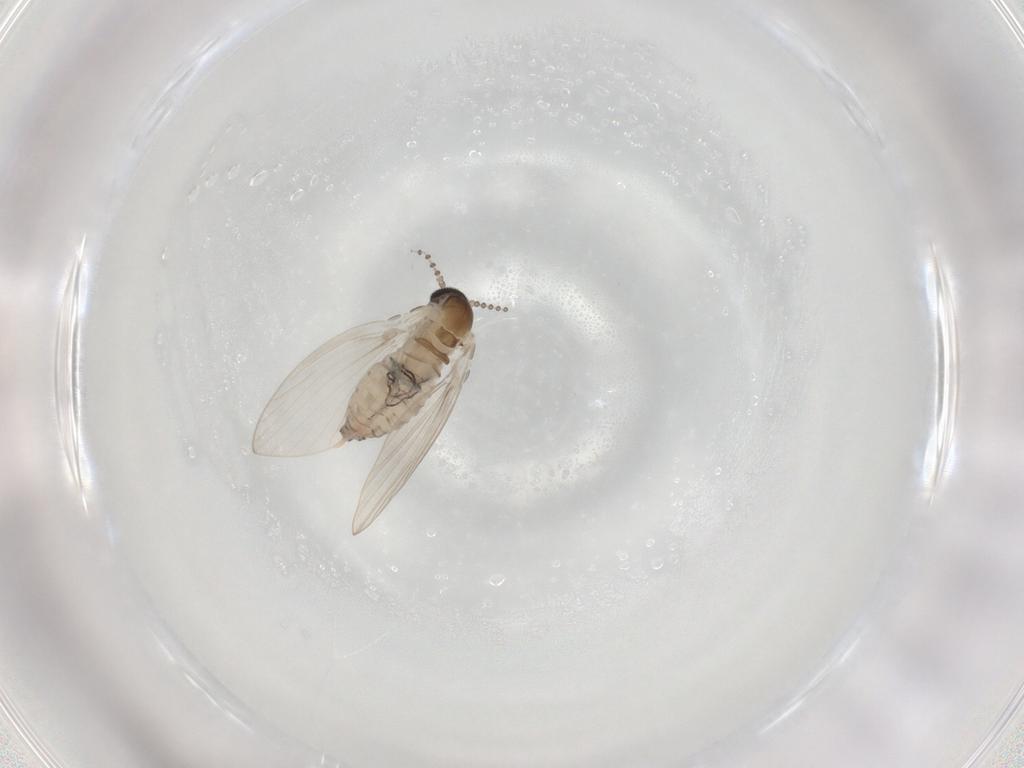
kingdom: Animalia
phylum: Arthropoda
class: Insecta
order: Diptera
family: Psychodidae
